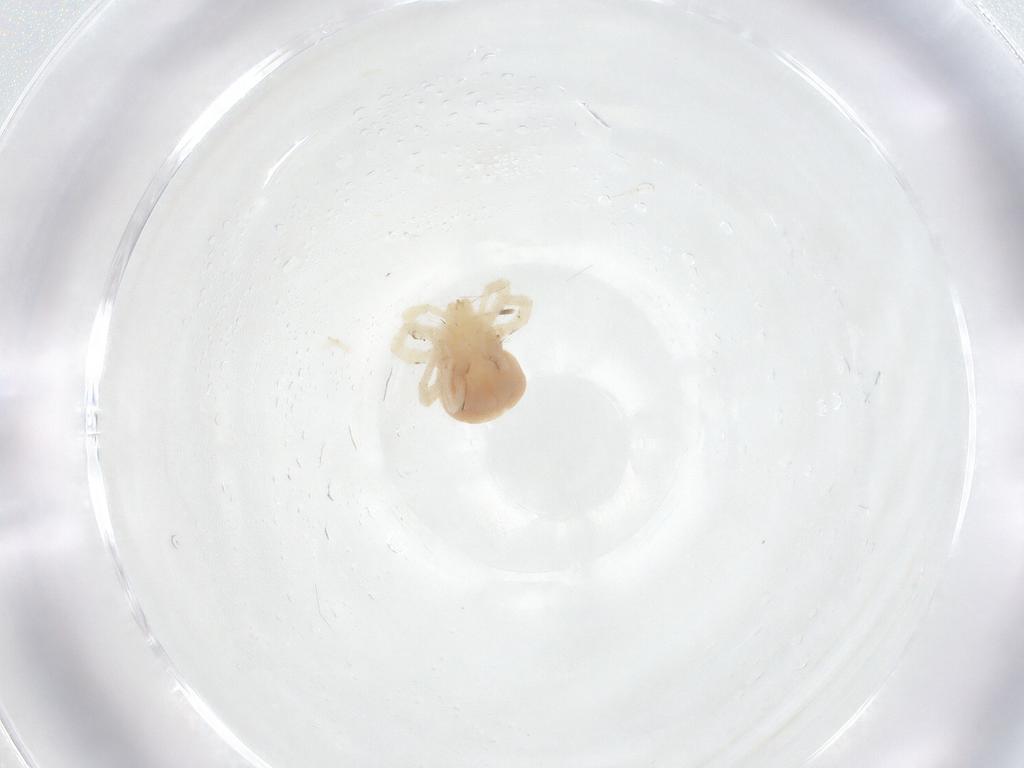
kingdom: Animalia
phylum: Arthropoda
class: Arachnida
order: Trombidiformes
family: Anystidae
